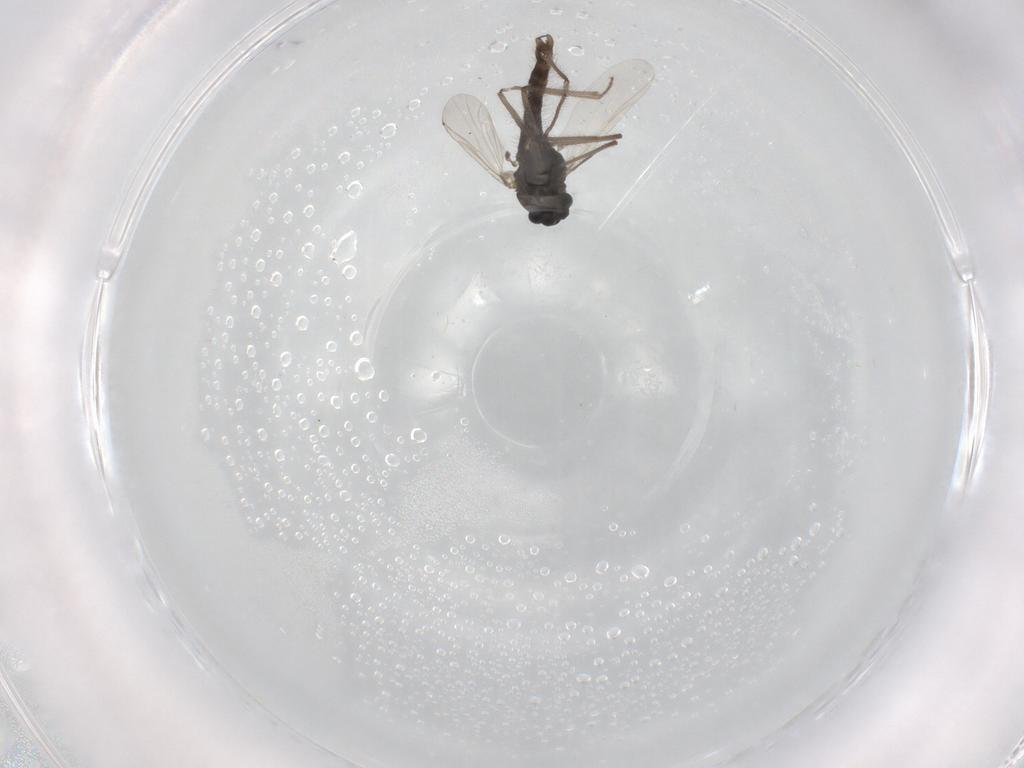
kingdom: Animalia
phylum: Arthropoda
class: Insecta
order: Diptera
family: Chironomidae
